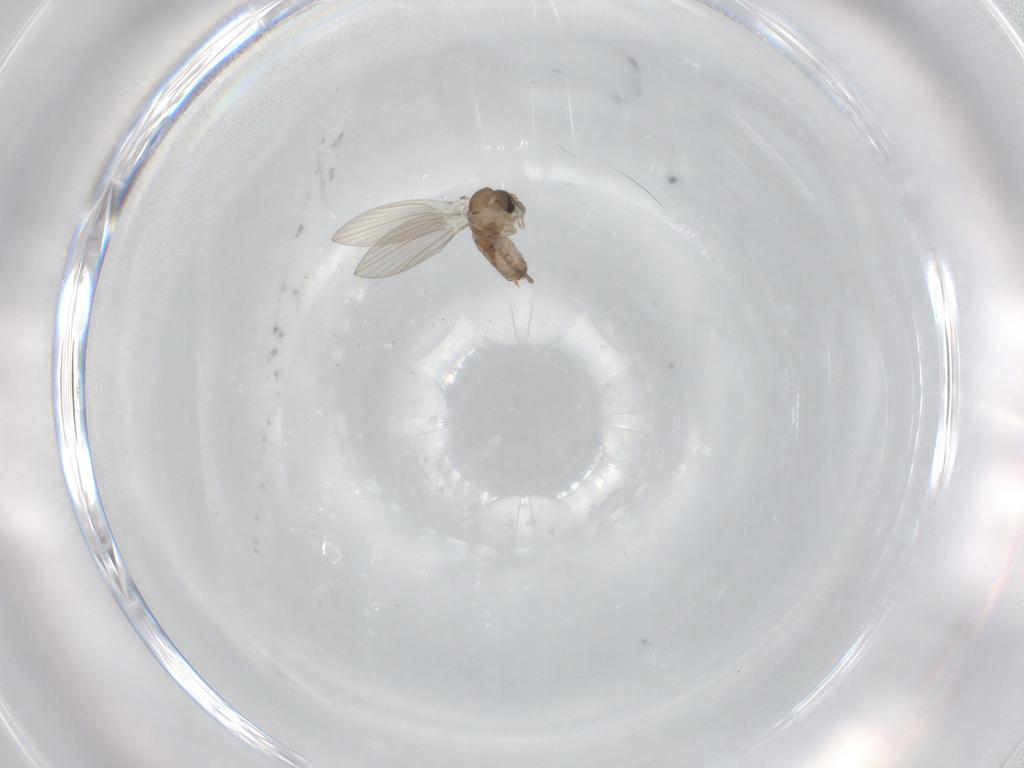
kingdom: Animalia
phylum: Arthropoda
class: Insecta
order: Diptera
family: Psychodidae
